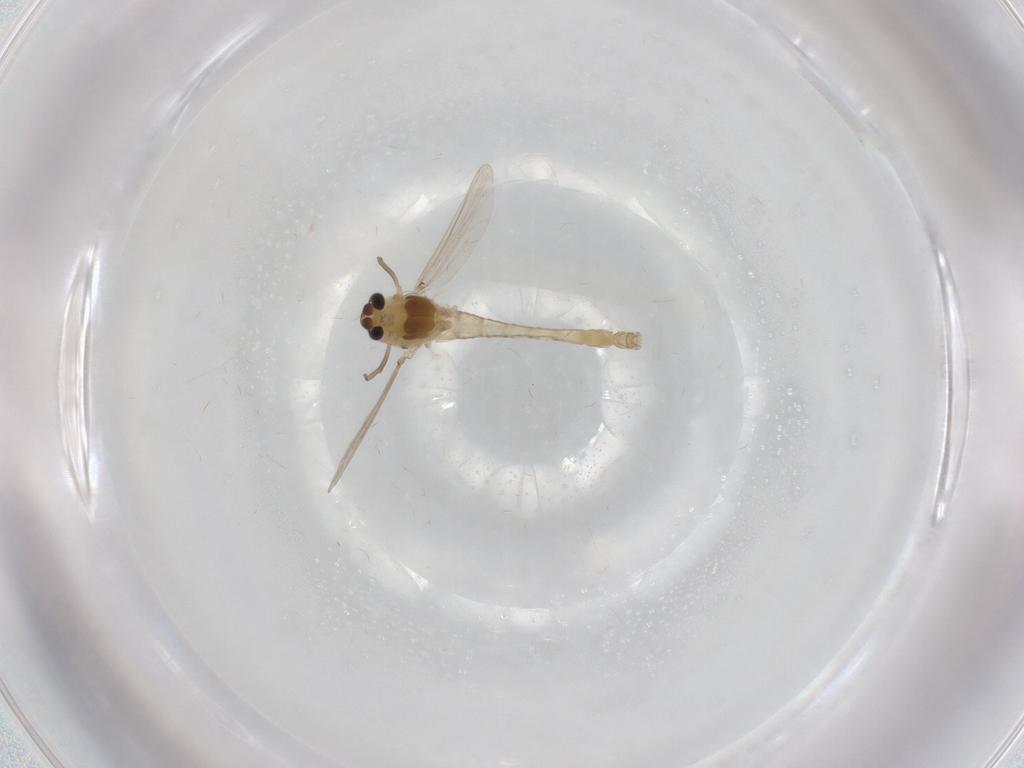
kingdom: Animalia
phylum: Arthropoda
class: Insecta
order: Diptera
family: Chironomidae
